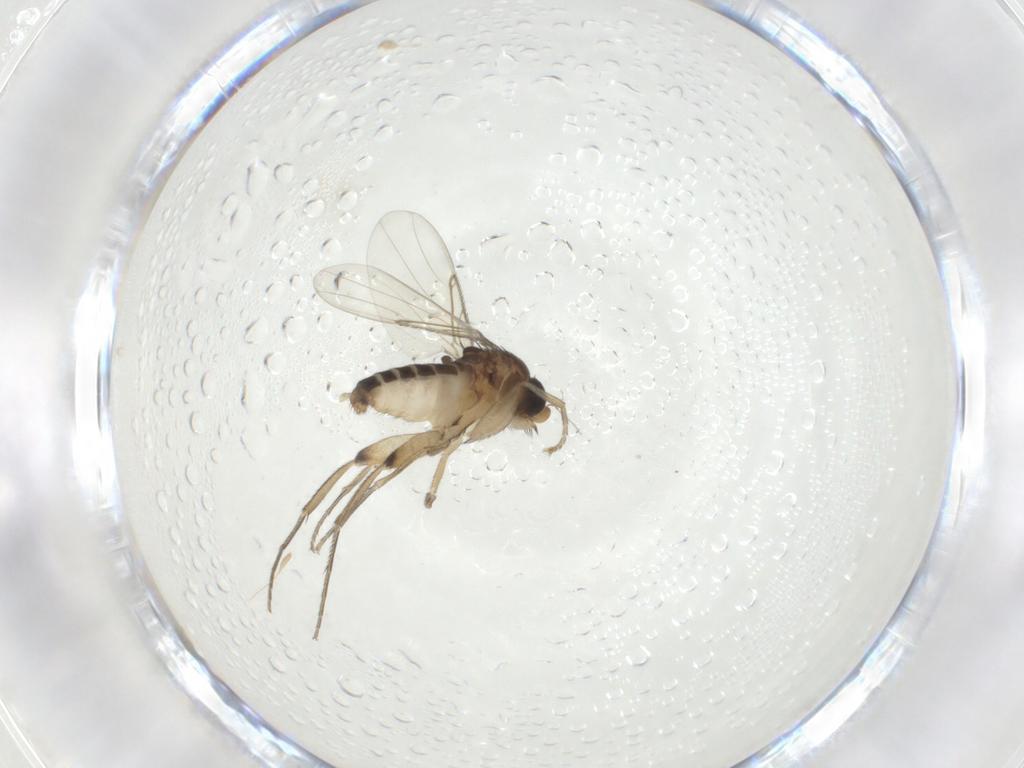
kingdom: Animalia
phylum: Arthropoda
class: Insecta
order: Diptera
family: Phoridae
